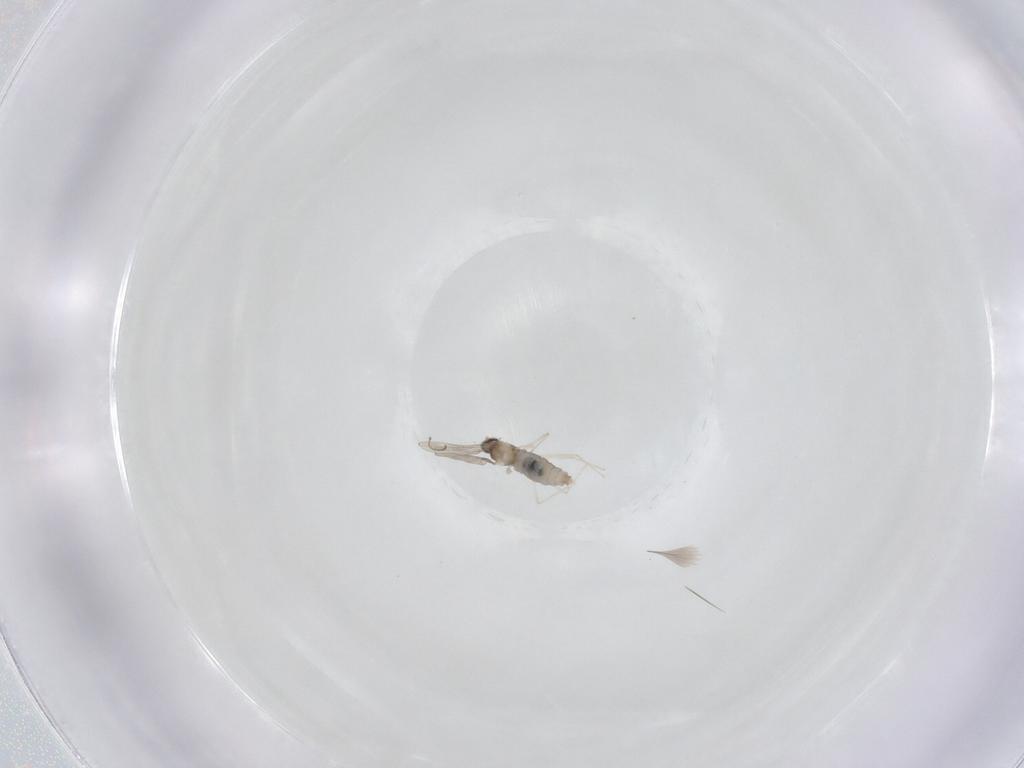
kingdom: Animalia
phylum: Arthropoda
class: Insecta
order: Diptera
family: Cecidomyiidae
